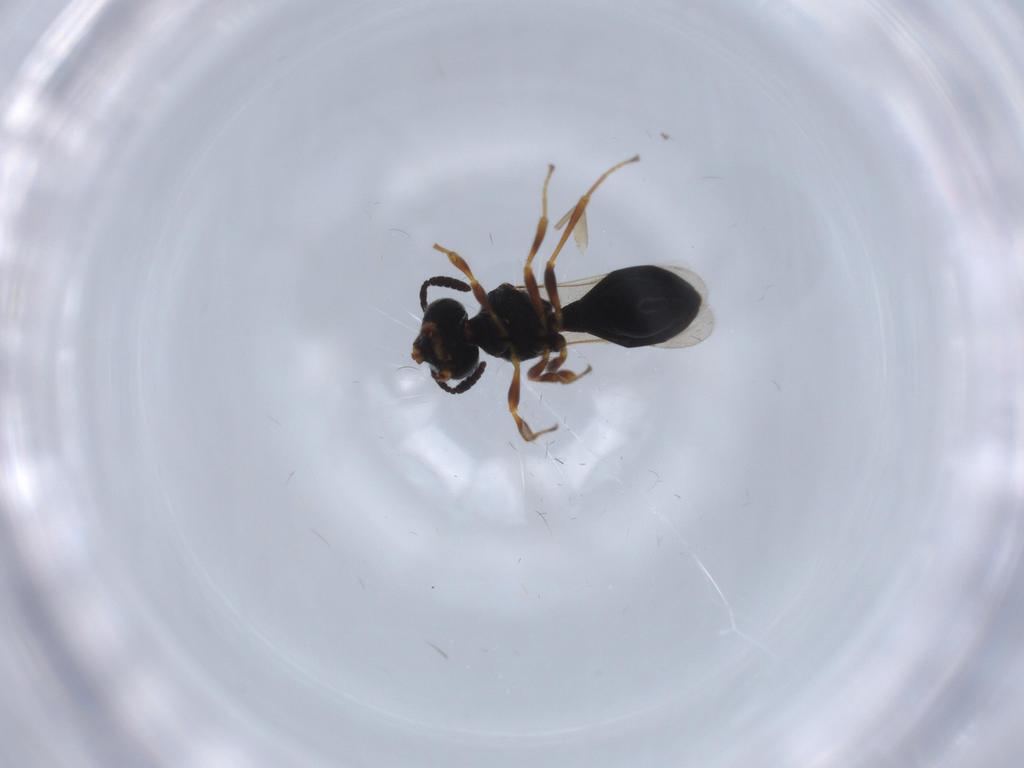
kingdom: Animalia
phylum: Arthropoda
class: Insecta
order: Hymenoptera
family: Scelionidae
